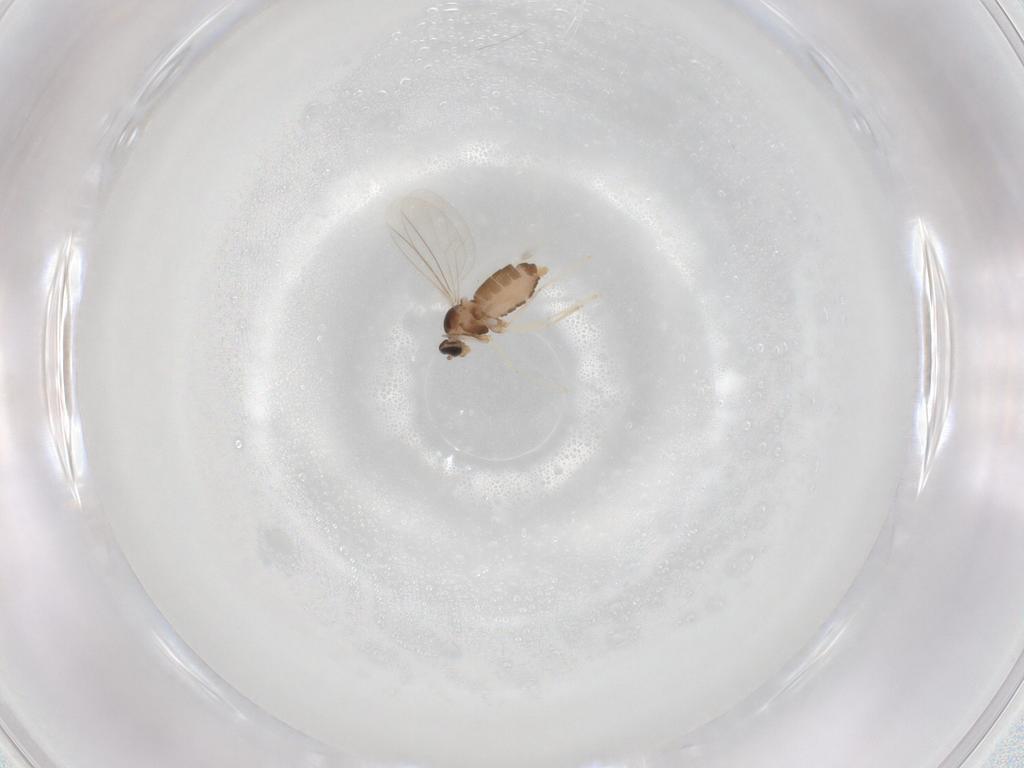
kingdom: Animalia
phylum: Arthropoda
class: Insecta
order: Diptera
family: Cecidomyiidae
